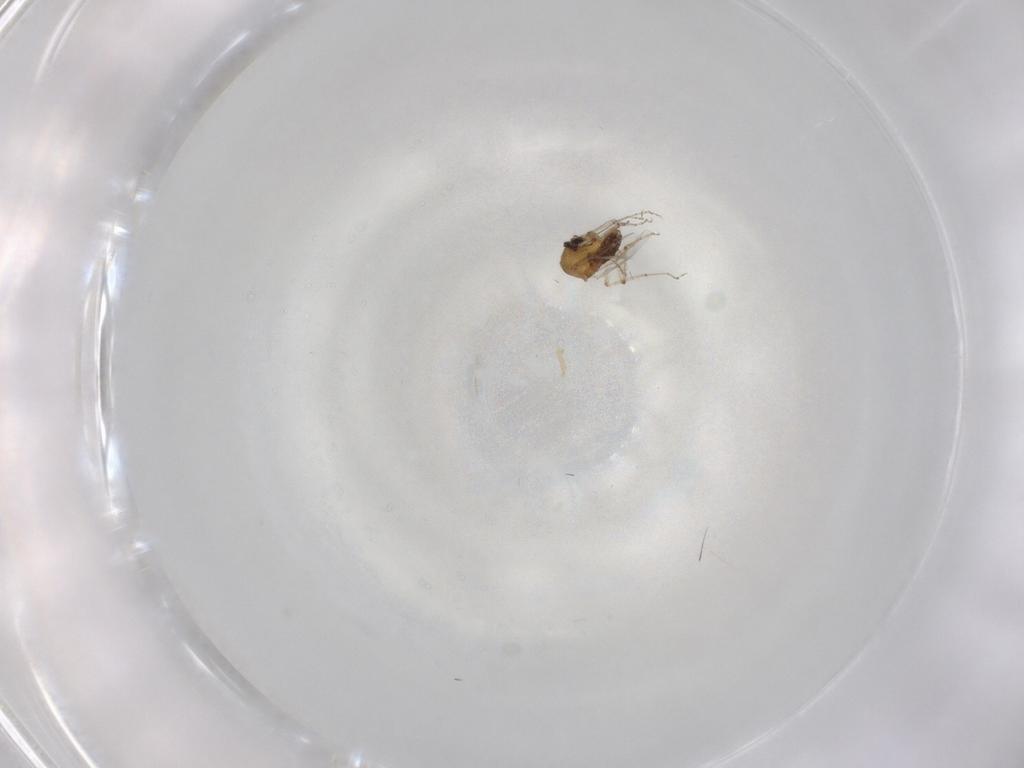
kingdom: Animalia
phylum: Arthropoda
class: Insecta
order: Diptera
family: Ceratopogonidae
